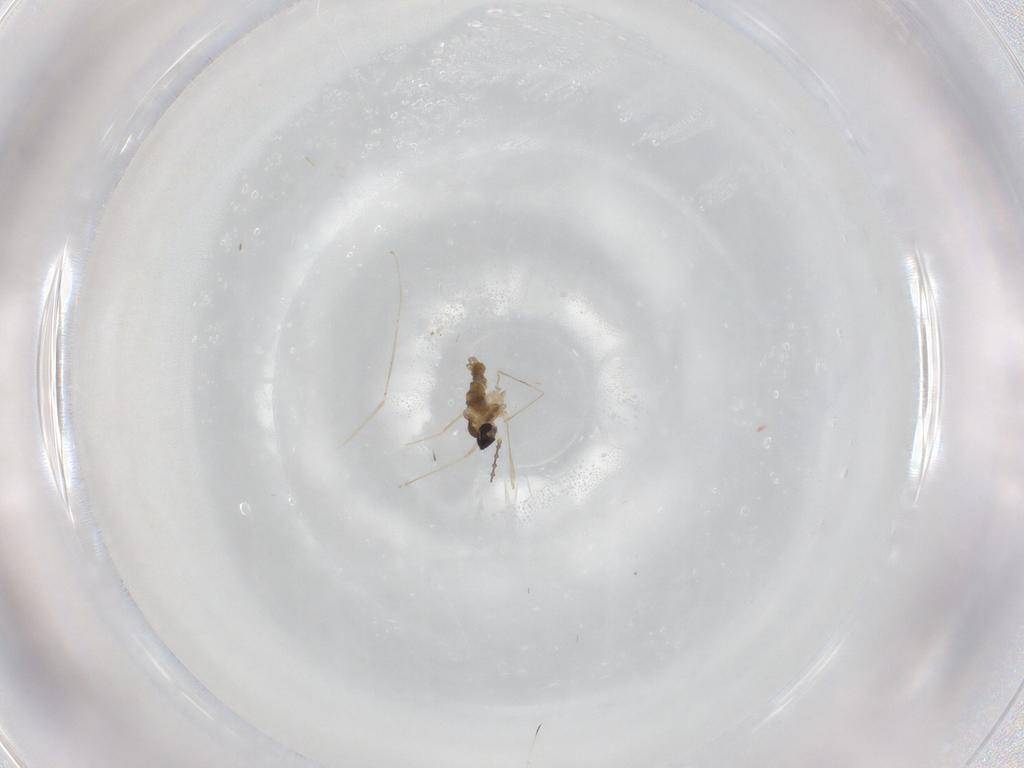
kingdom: Animalia
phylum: Arthropoda
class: Insecta
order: Diptera
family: Cecidomyiidae
